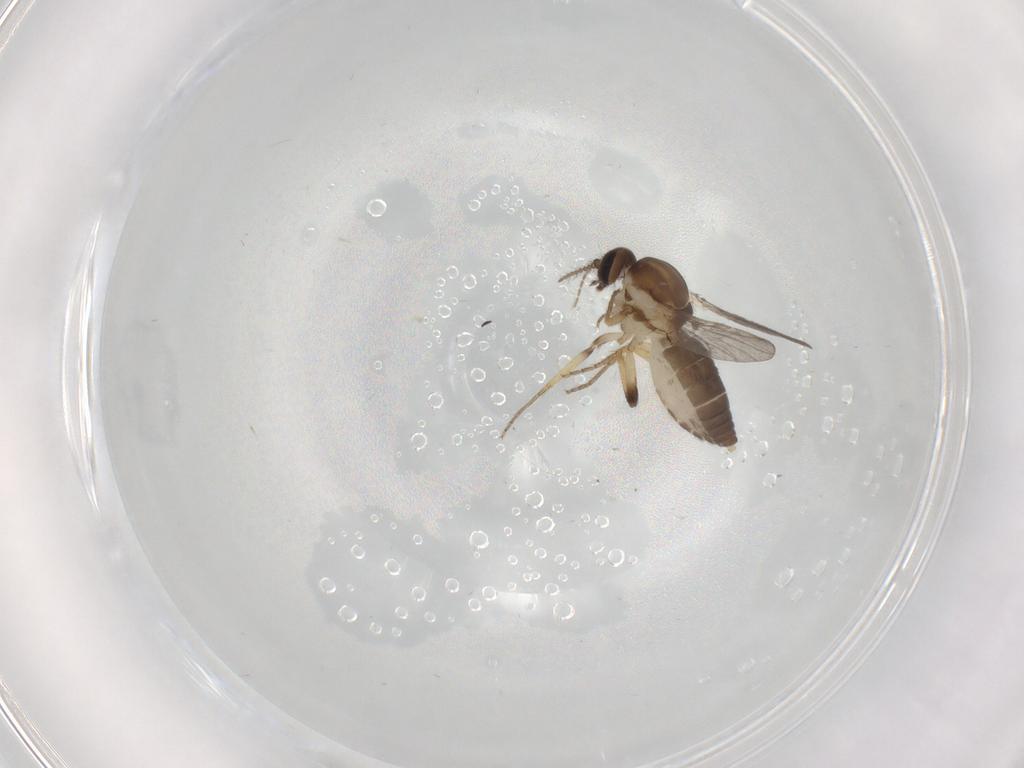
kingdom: Animalia
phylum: Arthropoda
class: Insecta
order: Diptera
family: Ceratopogonidae
